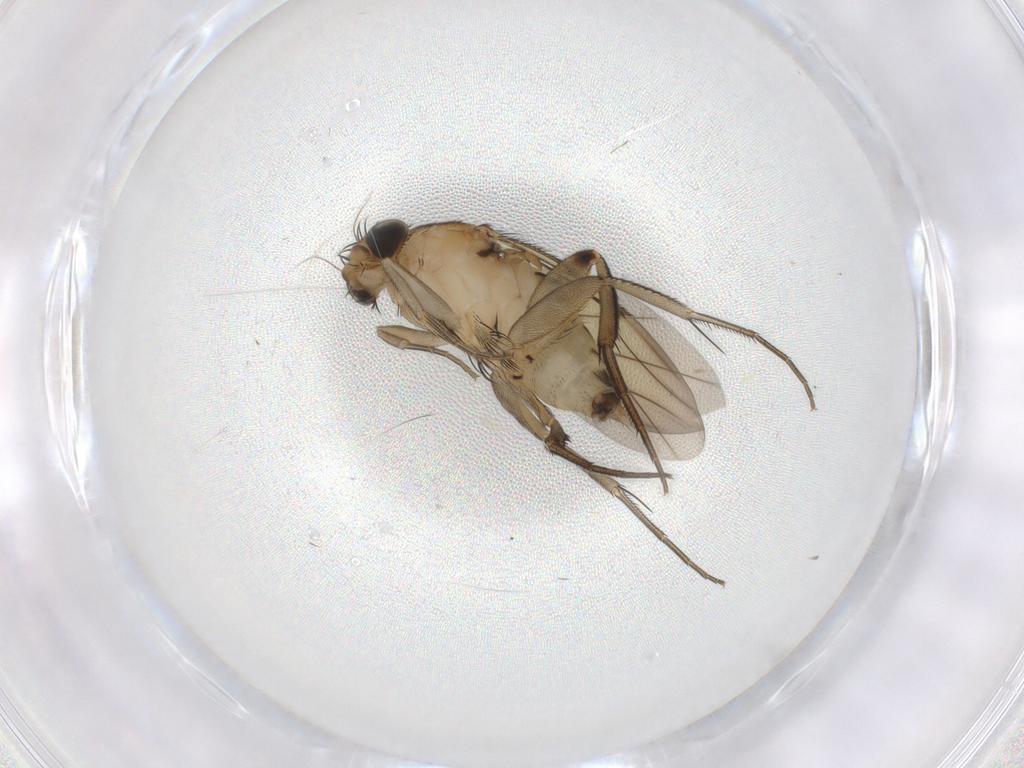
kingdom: Animalia
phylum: Arthropoda
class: Insecta
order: Diptera
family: Phoridae
